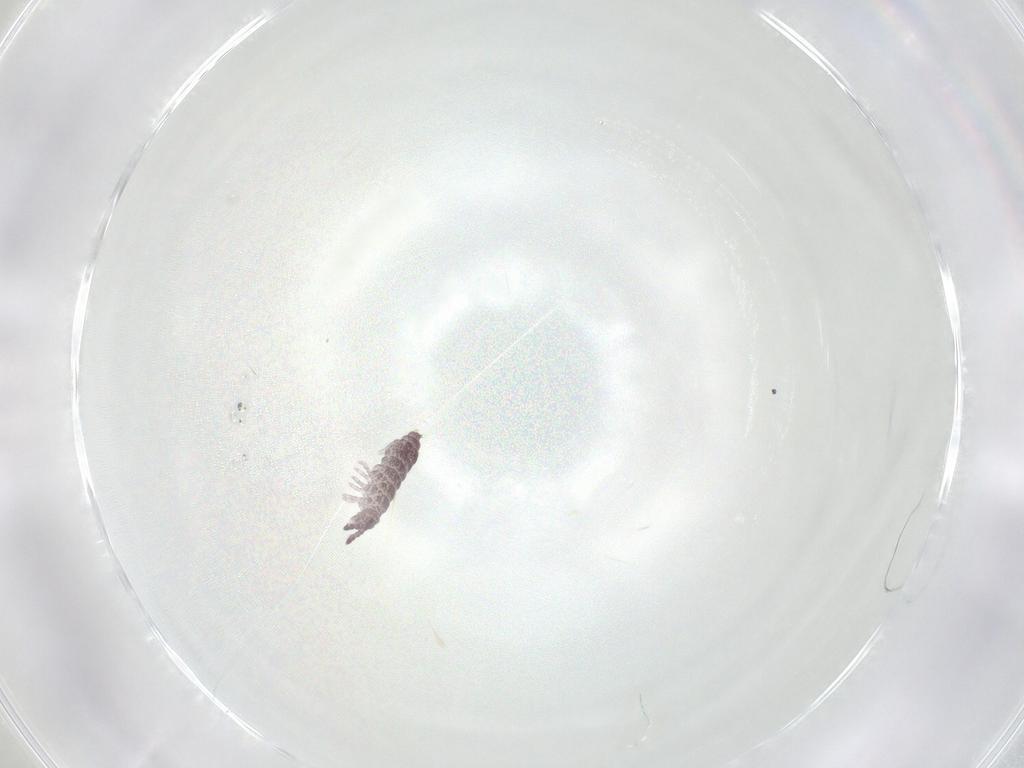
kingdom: Animalia
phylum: Arthropoda
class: Collembola
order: Poduromorpha
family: Hypogastruridae
